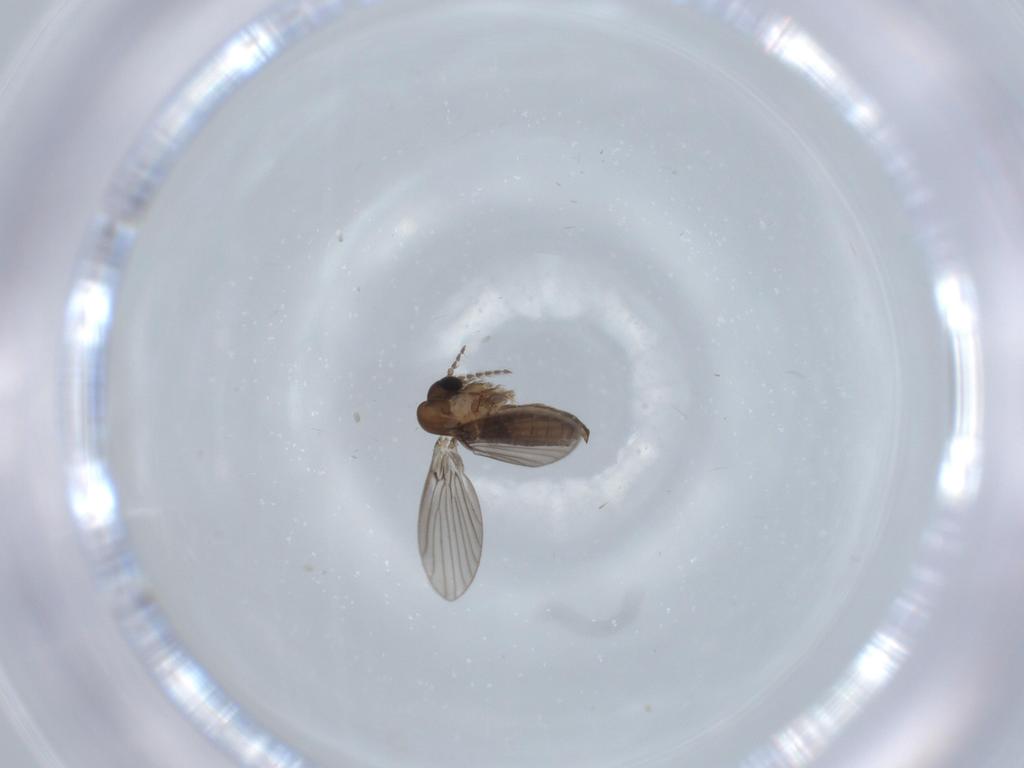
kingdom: Animalia
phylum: Arthropoda
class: Insecta
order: Diptera
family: Psychodidae
